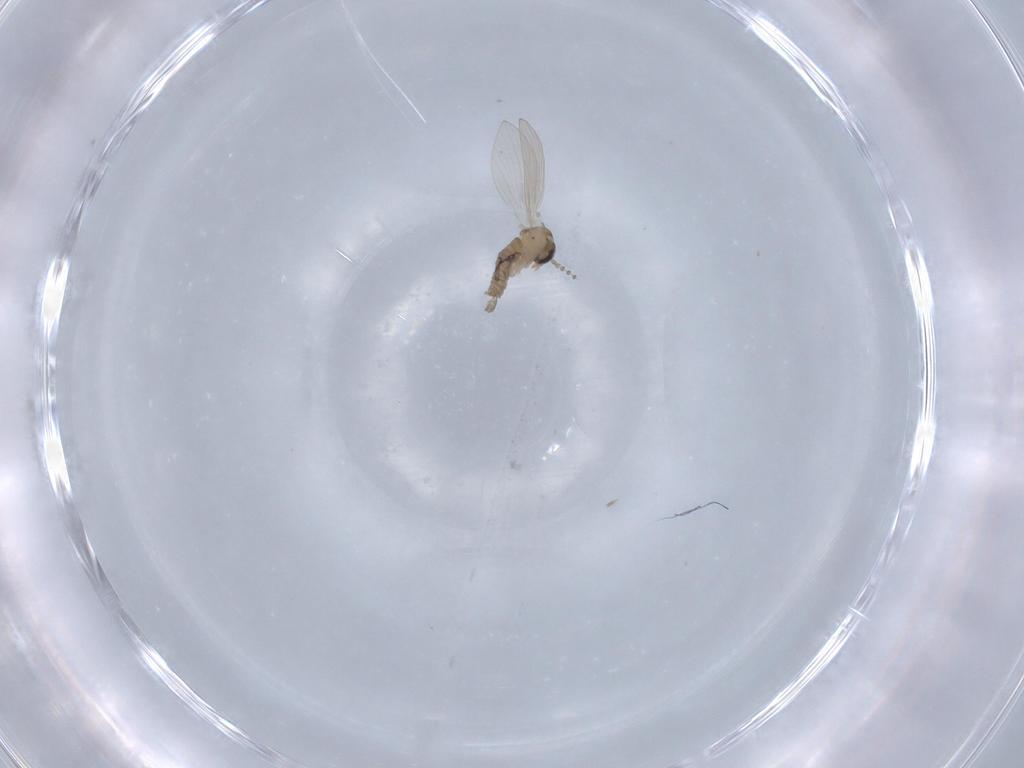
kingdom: Animalia
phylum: Arthropoda
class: Insecta
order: Diptera
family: Psychodidae
